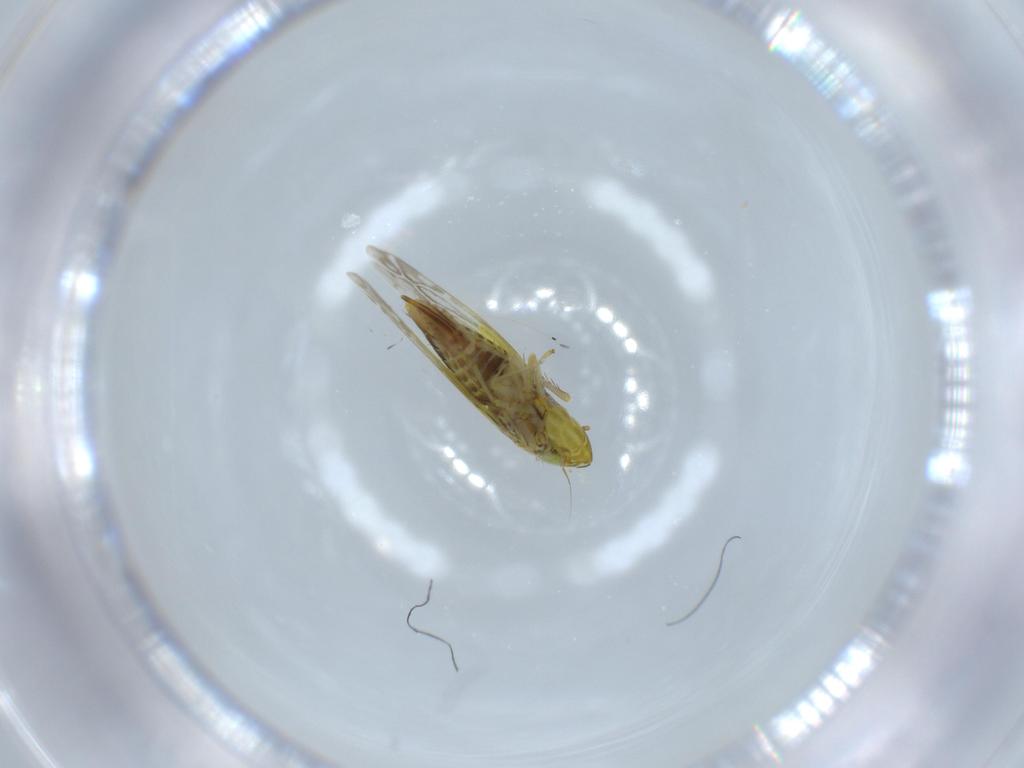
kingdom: Animalia
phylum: Arthropoda
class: Insecta
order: Hemiptera
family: Cicadellidae
